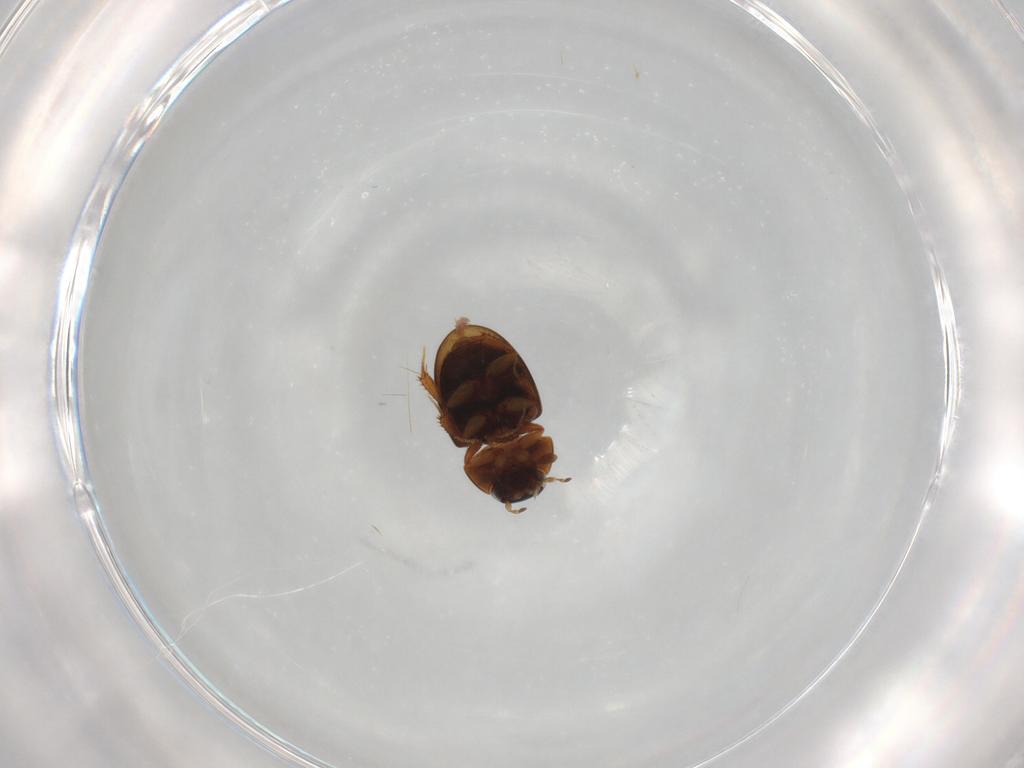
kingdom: Animalia
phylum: Arthropoda
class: Insecta
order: Coleoptera
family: Staphylinidae
